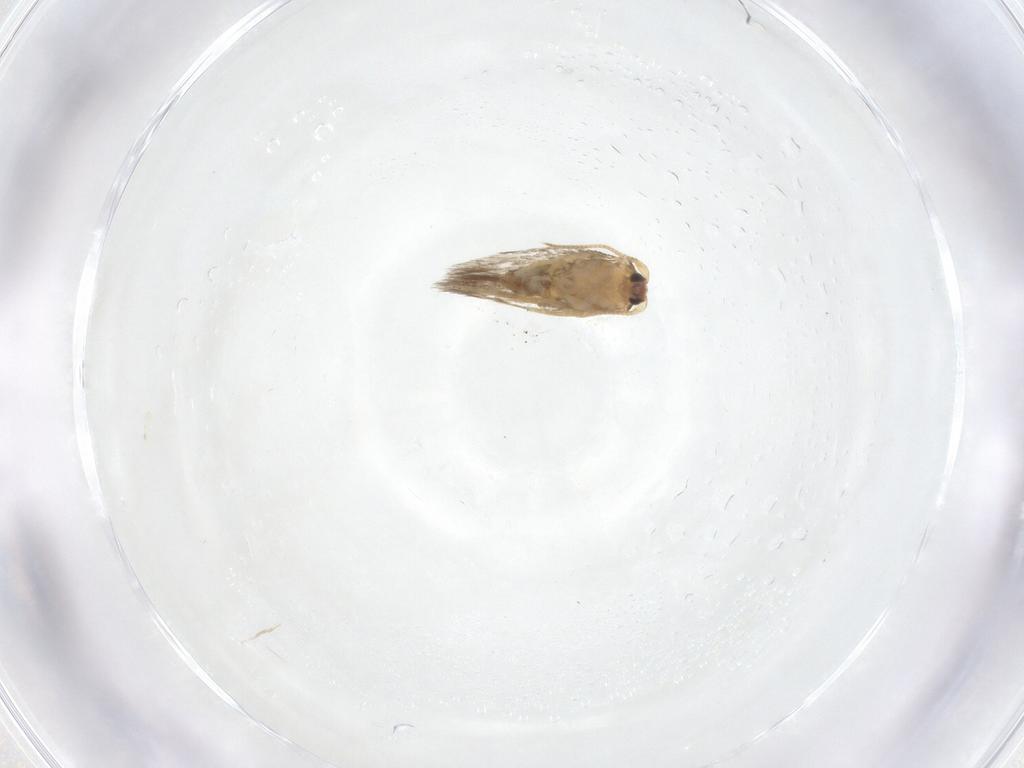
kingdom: Animalia
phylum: Arthropoda
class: Insecta
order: Lepidoptera
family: Nepticulidae
